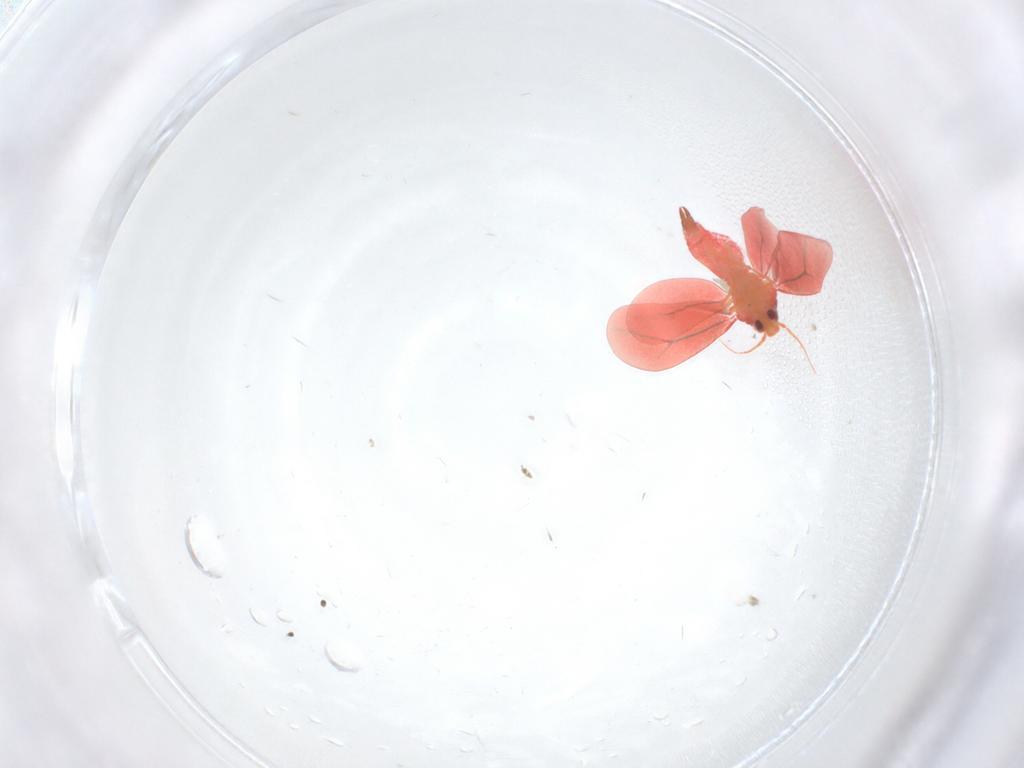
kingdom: Animalia
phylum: Arthropoda
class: Insecta
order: Hemiptera
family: Aleyrodidae
